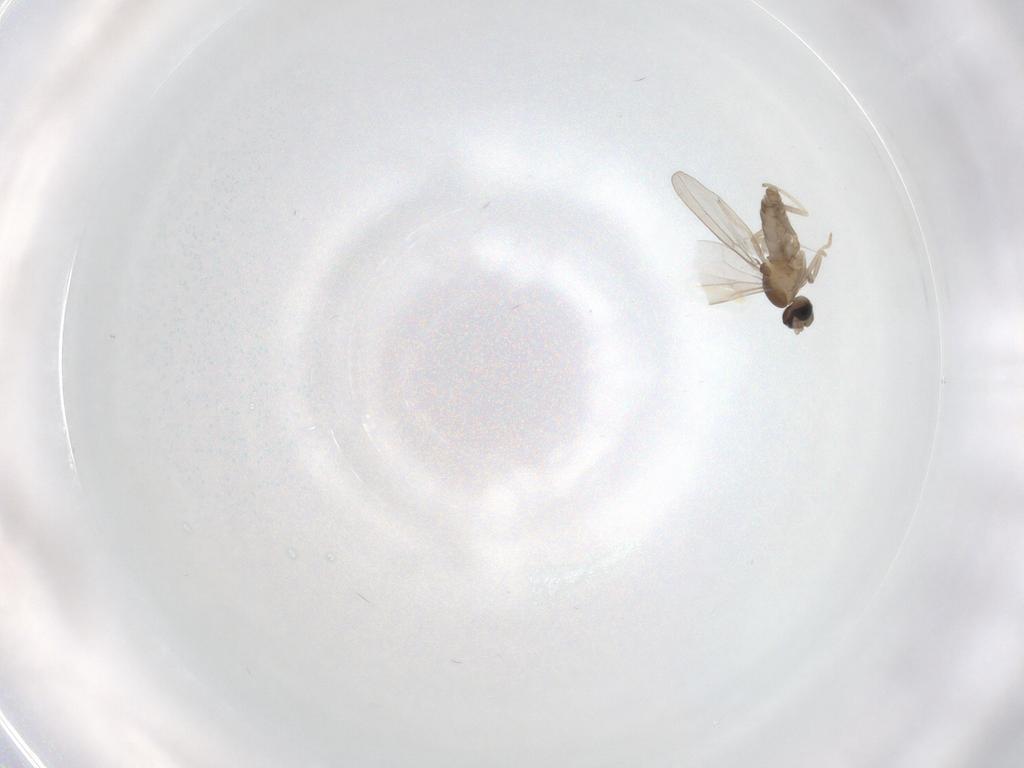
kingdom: Animalia
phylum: Arthropoda
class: Insecta
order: Diptera
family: Cecidomyiidae
